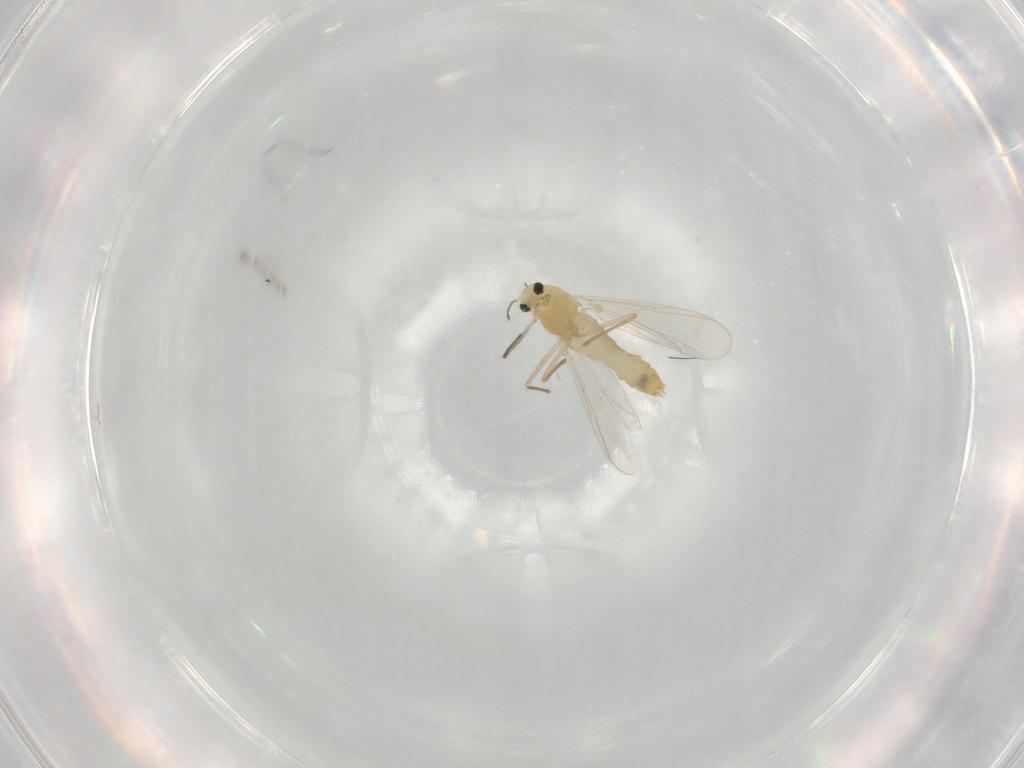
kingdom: Animalia
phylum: Arthropoda
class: Insecta
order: Diptera
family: Chironomidae
